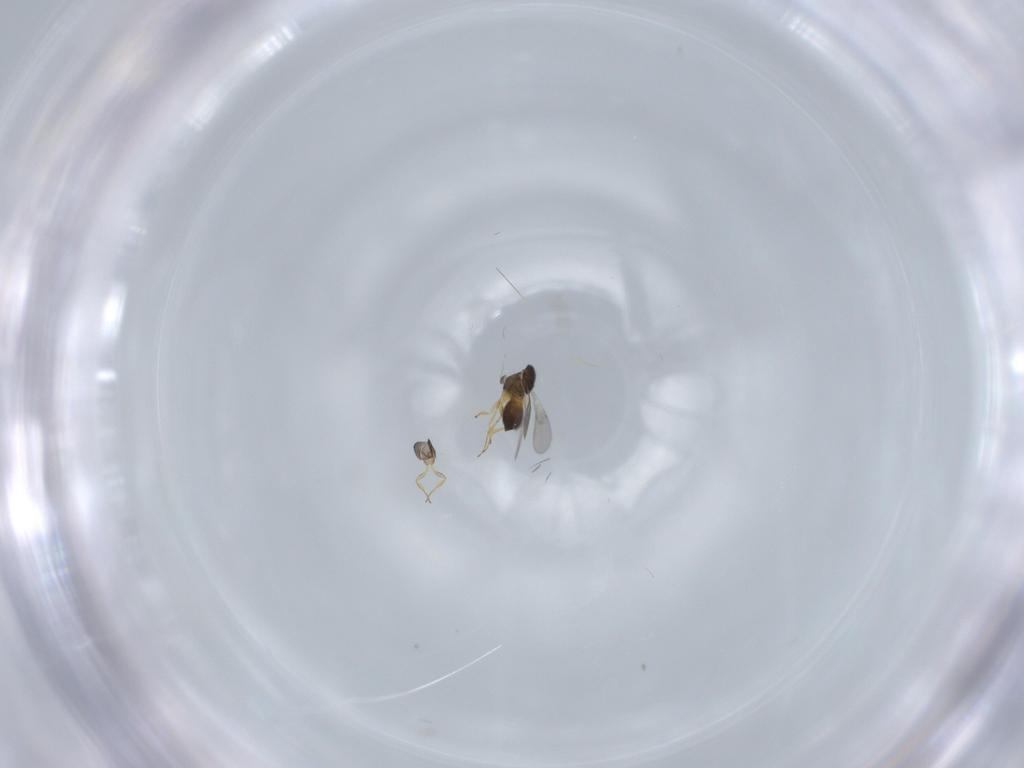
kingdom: Animalia
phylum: Arthropoda
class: Insecta
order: Hymenoptera
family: Scelionidae
